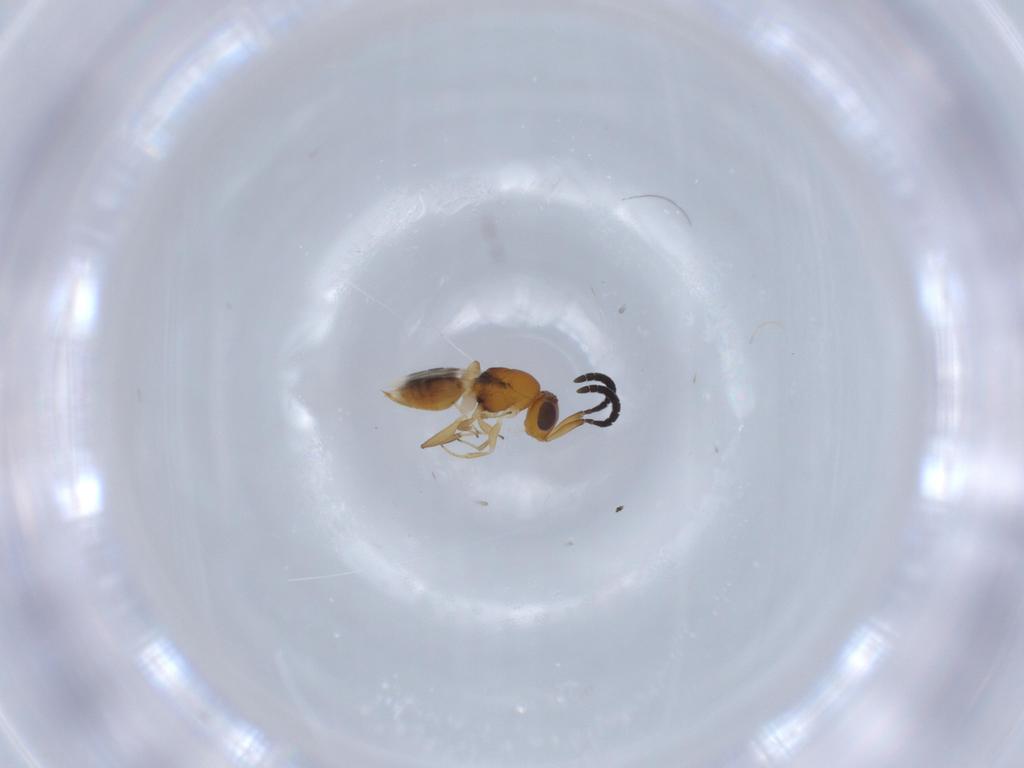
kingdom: Animalia
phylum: Arthropoda
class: Insecta
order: Hymenoptera
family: Megaspilidae
